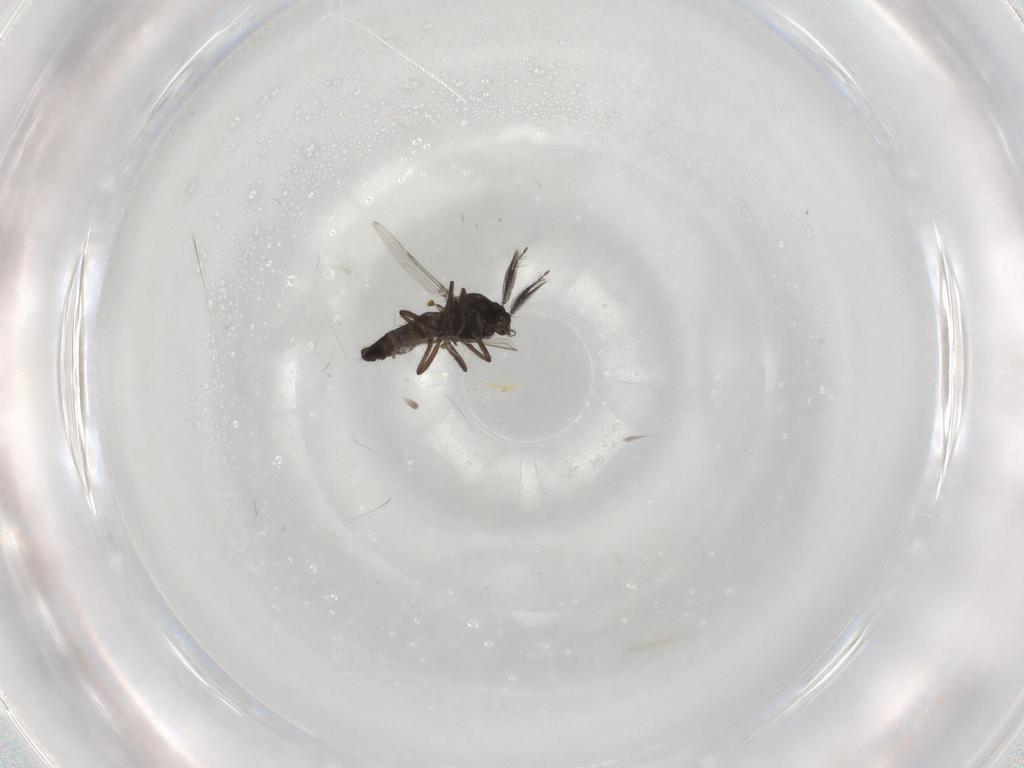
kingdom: Animalia
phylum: Arthropoda
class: Insecta
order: Diptera
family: Ceratopogonidae
